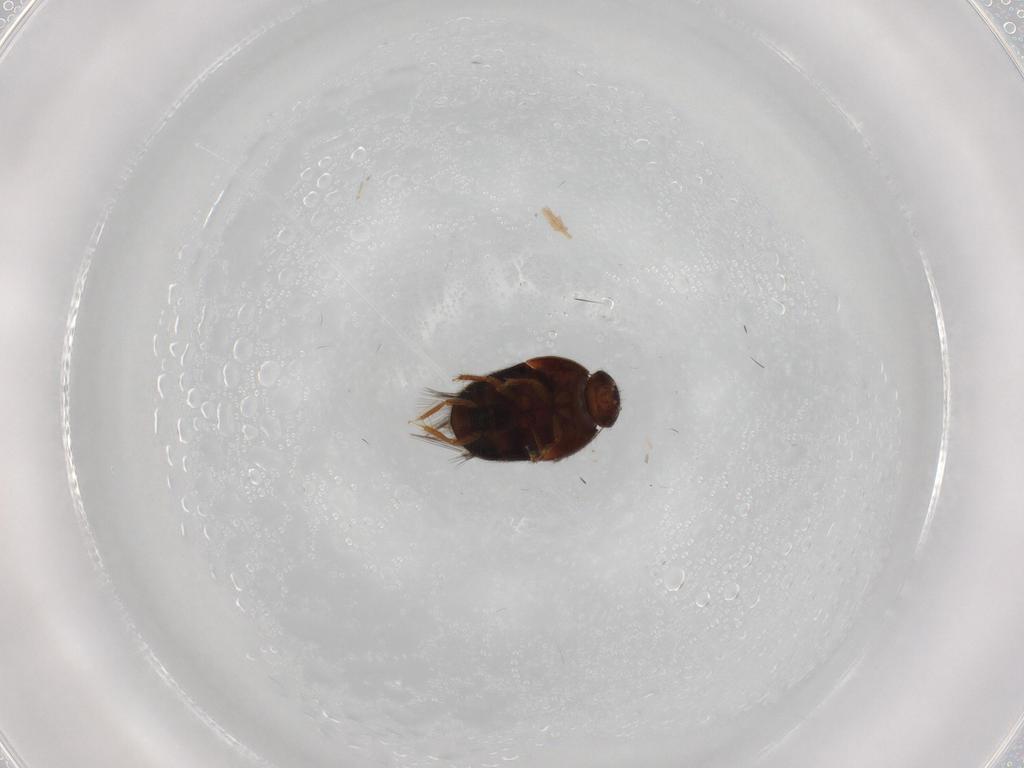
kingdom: Animalia
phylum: Arthropoda
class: Insecta
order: Coleoptera
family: Ptiliidae
